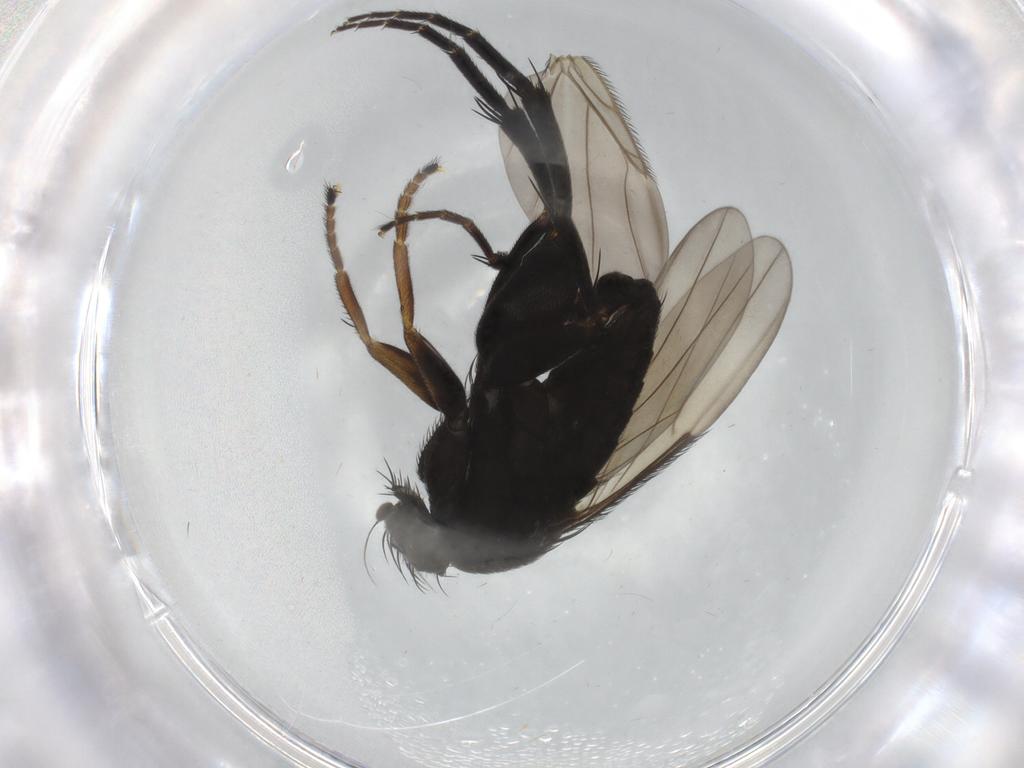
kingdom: Animalia
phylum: Arthropoda
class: Insecta
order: Diptera
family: Phoridae
